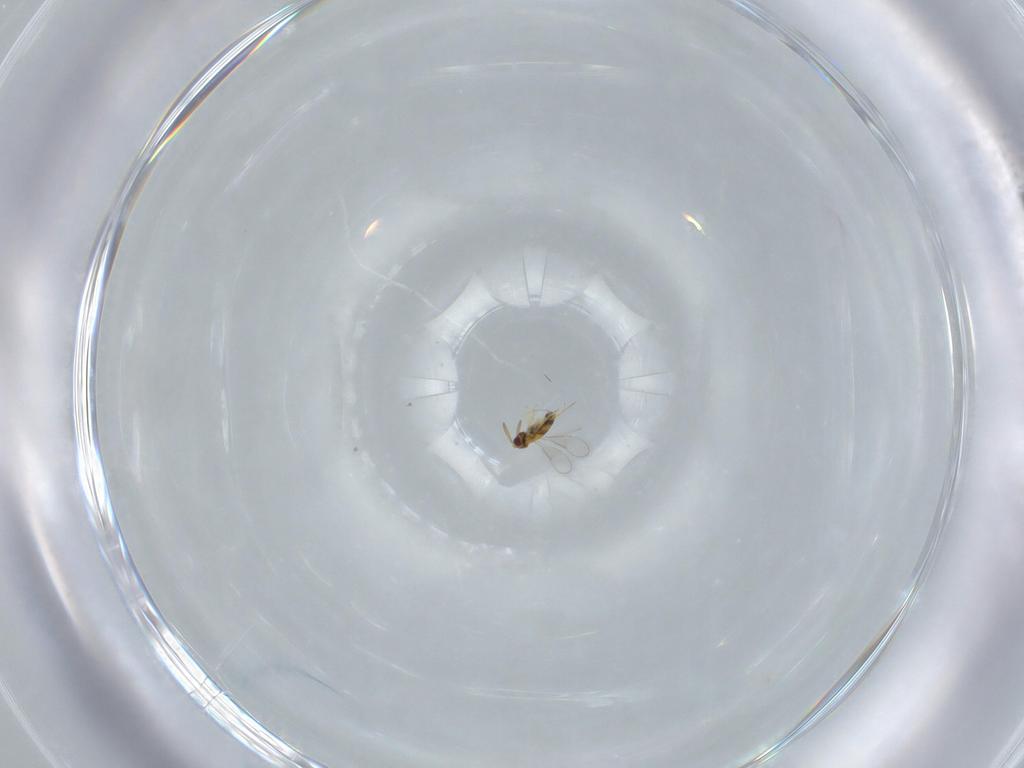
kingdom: Animalia
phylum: Arthropoda
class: Insecta
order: Hymenoptera
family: Aphelinidae
